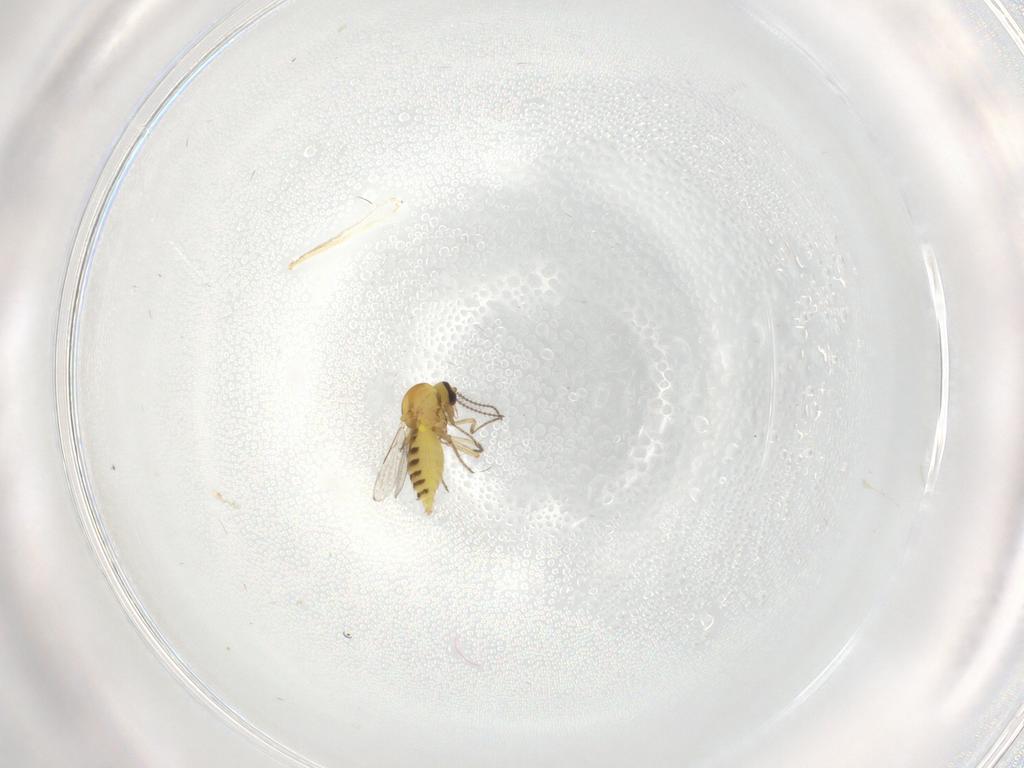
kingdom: Animalia
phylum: Arthropoda
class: Insecta
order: Diptera
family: Ceratopogonidae
